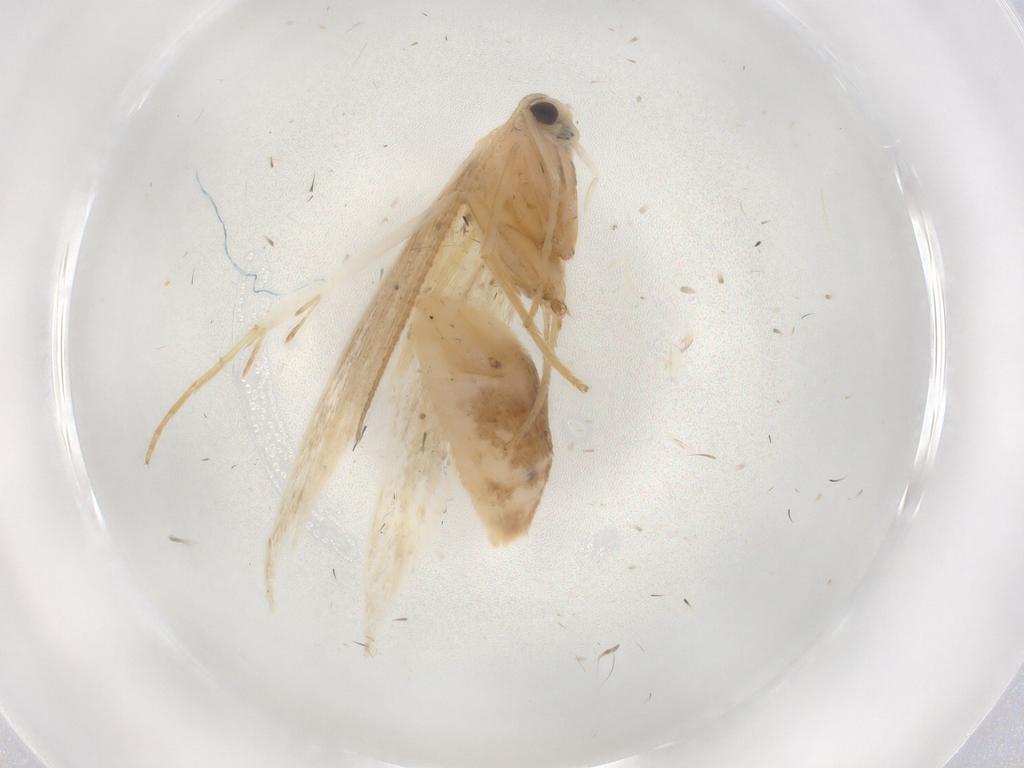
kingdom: Animalia
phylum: Arthropoda
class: Insecta
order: Lepidoptera
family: Xyloryctidae
